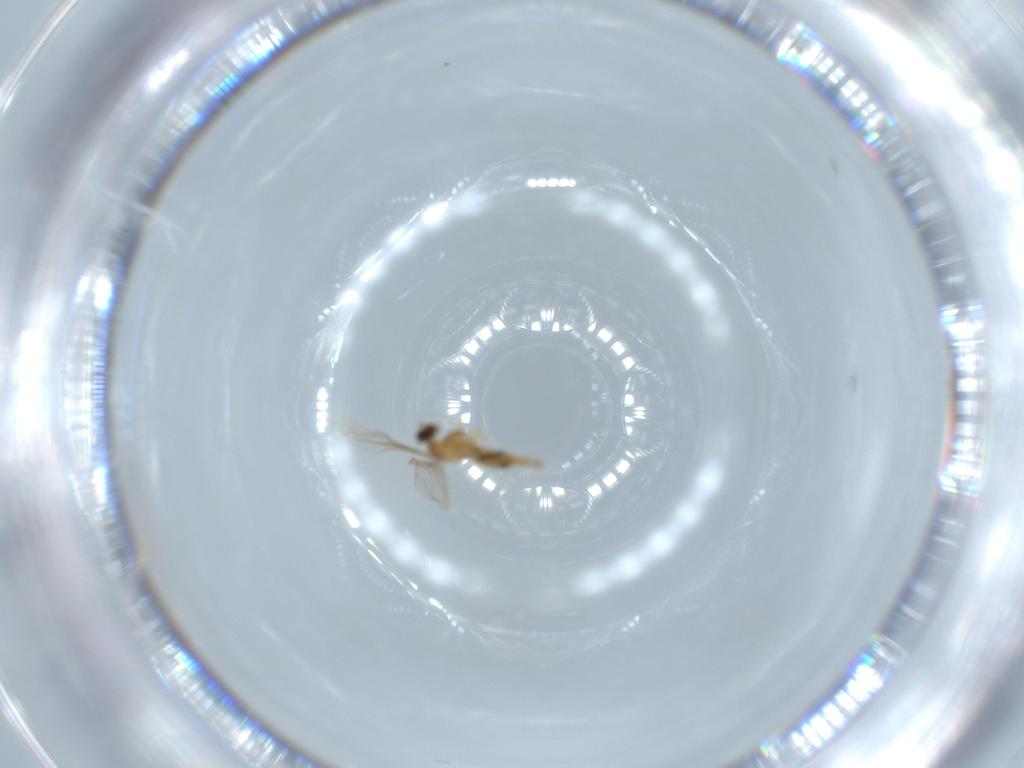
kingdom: Animalia
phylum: Arthropoda
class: Insecta
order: Diptera
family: Cecidomyiidae
